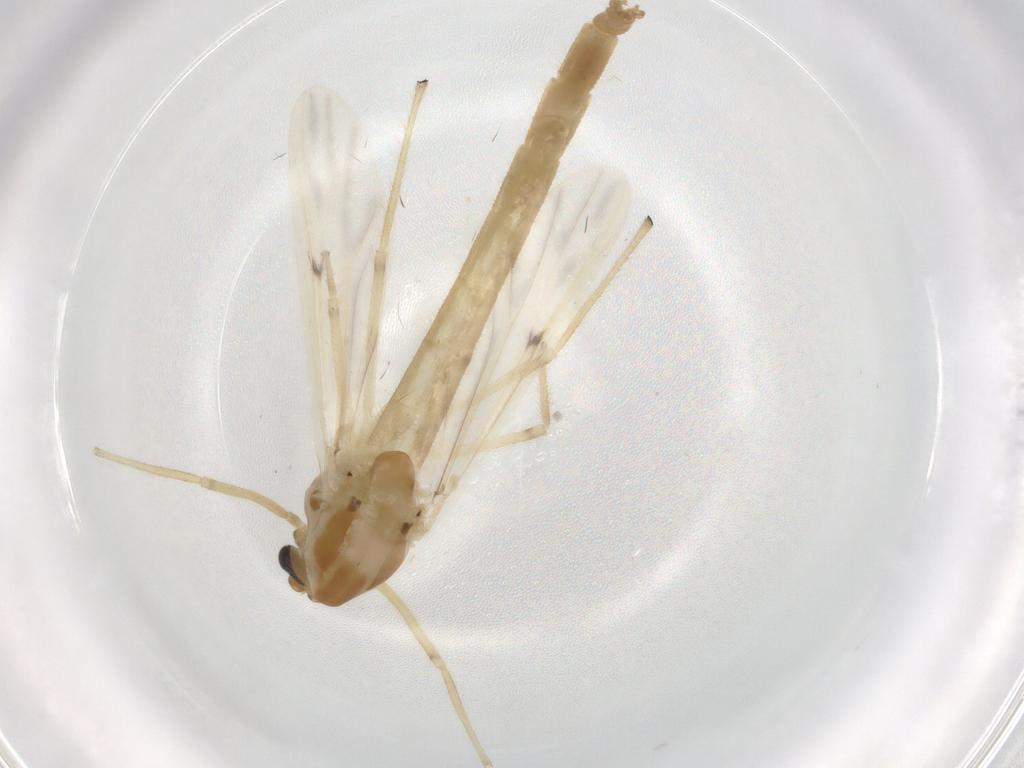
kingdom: Animalia
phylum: Arthropoda
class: Insecta
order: Diptera
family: Chironomidae
